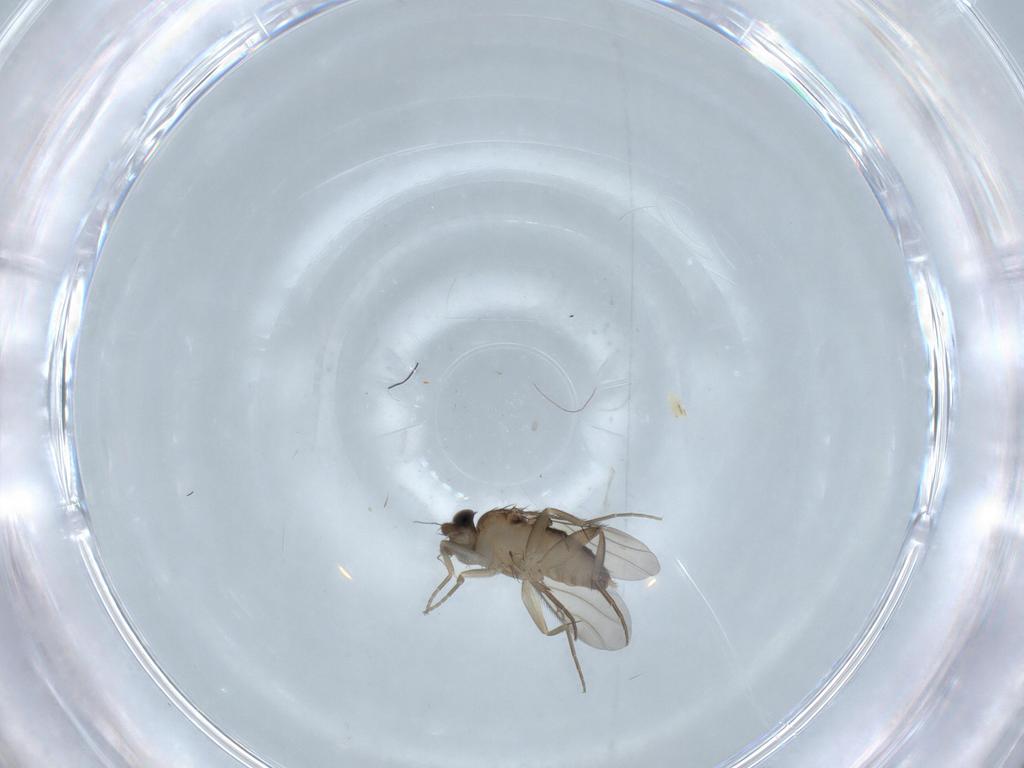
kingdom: Animalia
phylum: Arthropoda
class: Insecta
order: Diptera
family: Phoridae
